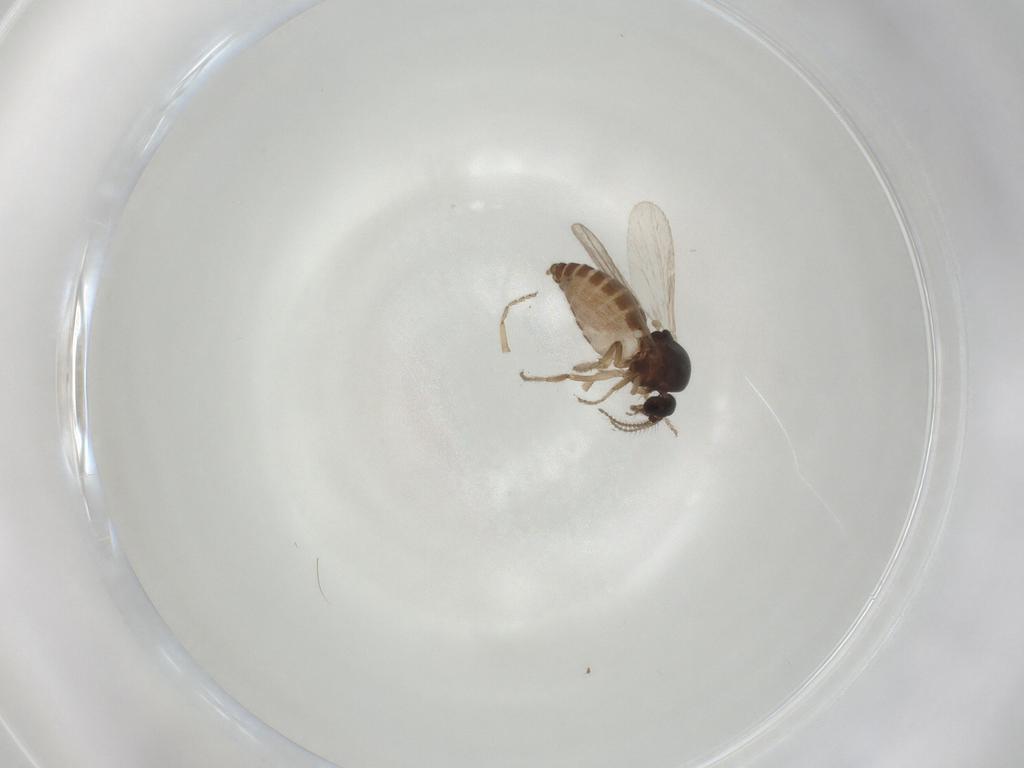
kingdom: Animalia
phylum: Arthropoda
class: Insecta
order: Diptera
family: Ceratopogonidae
